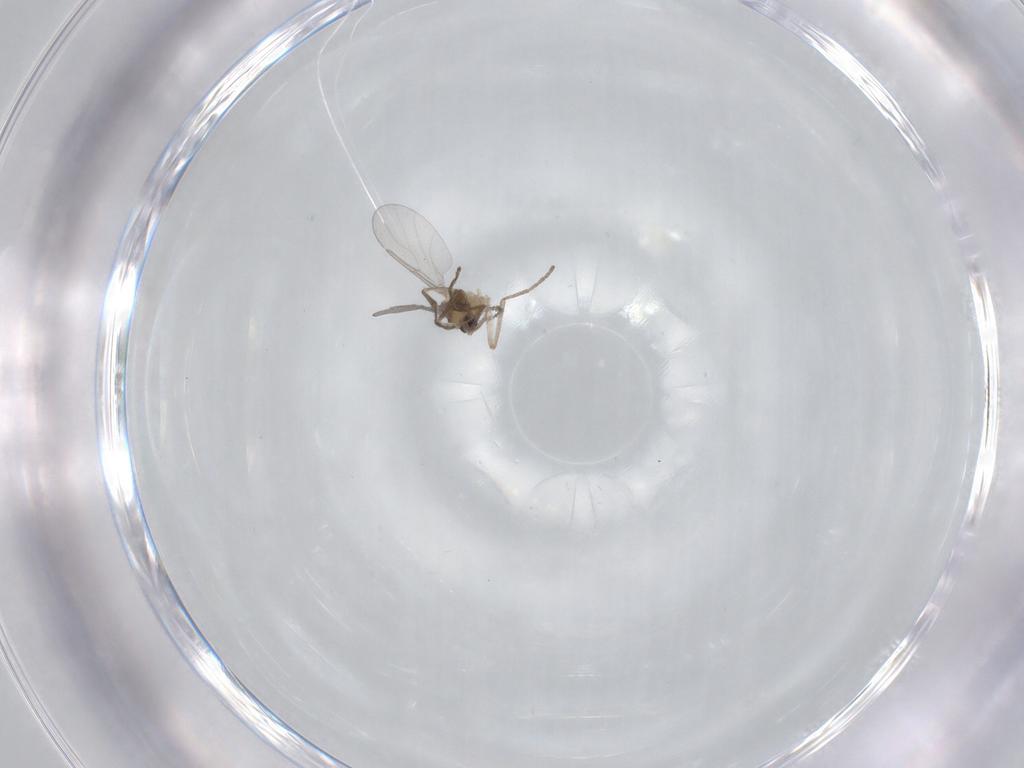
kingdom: Animalia
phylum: Arthropoda
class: Insecta
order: Diptera
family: Cecidomyiidae
